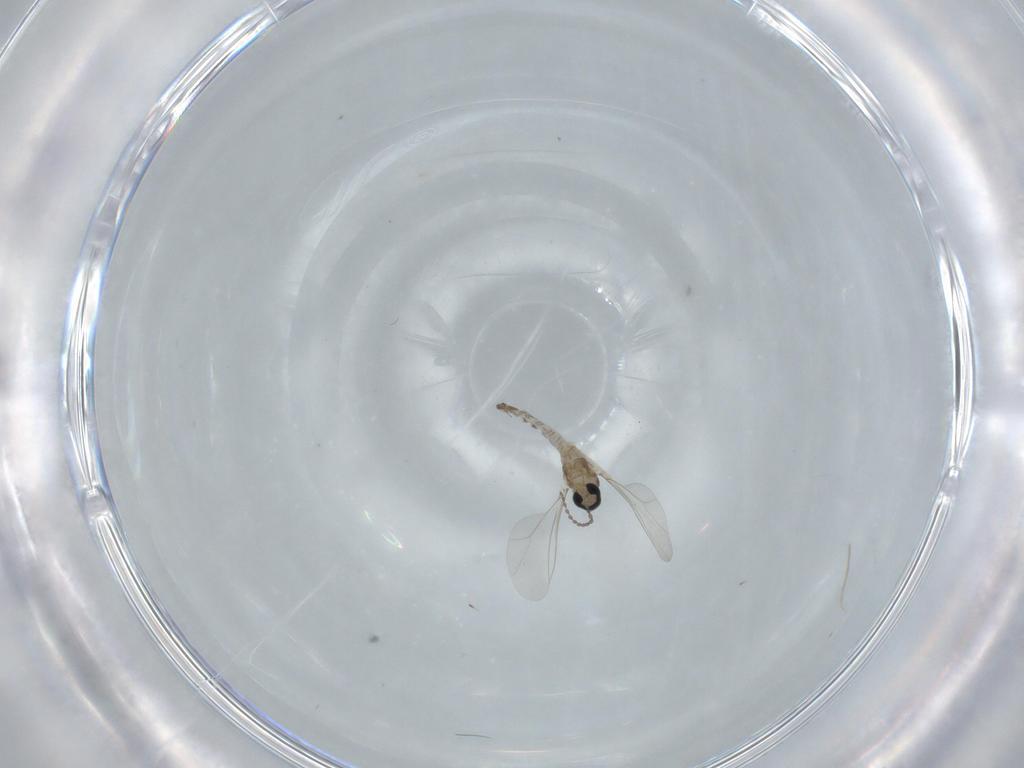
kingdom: Animalia
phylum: Arthropoda
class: Insecta
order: Diptera
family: Cecidomyiidae
